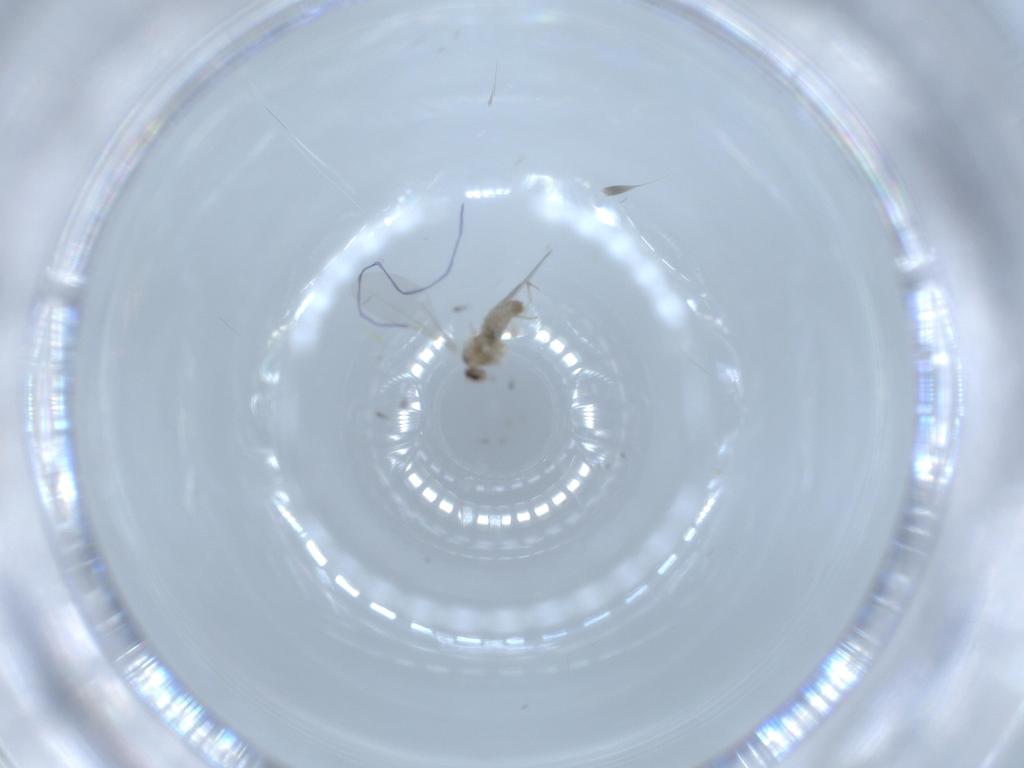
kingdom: Animalia
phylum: Arthropoda
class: Insecta
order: Diptera
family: Cecidomyiidae
